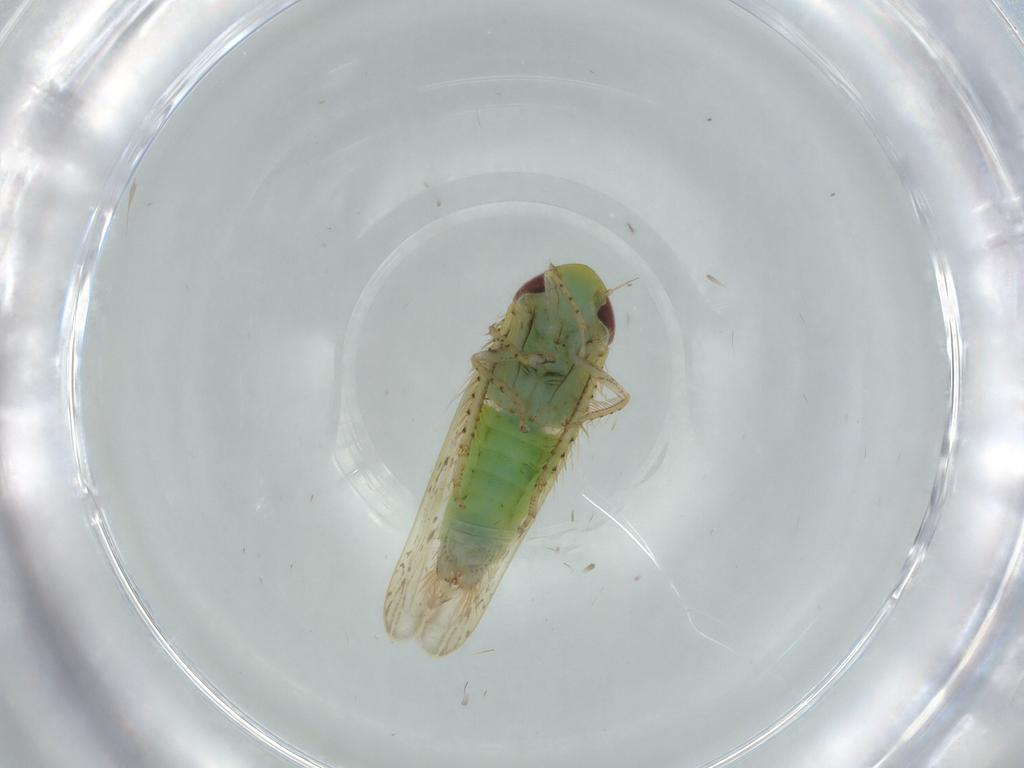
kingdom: Animalia
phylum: Arthropoda
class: Insecta
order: Hemiptera
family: Cicadellidae
